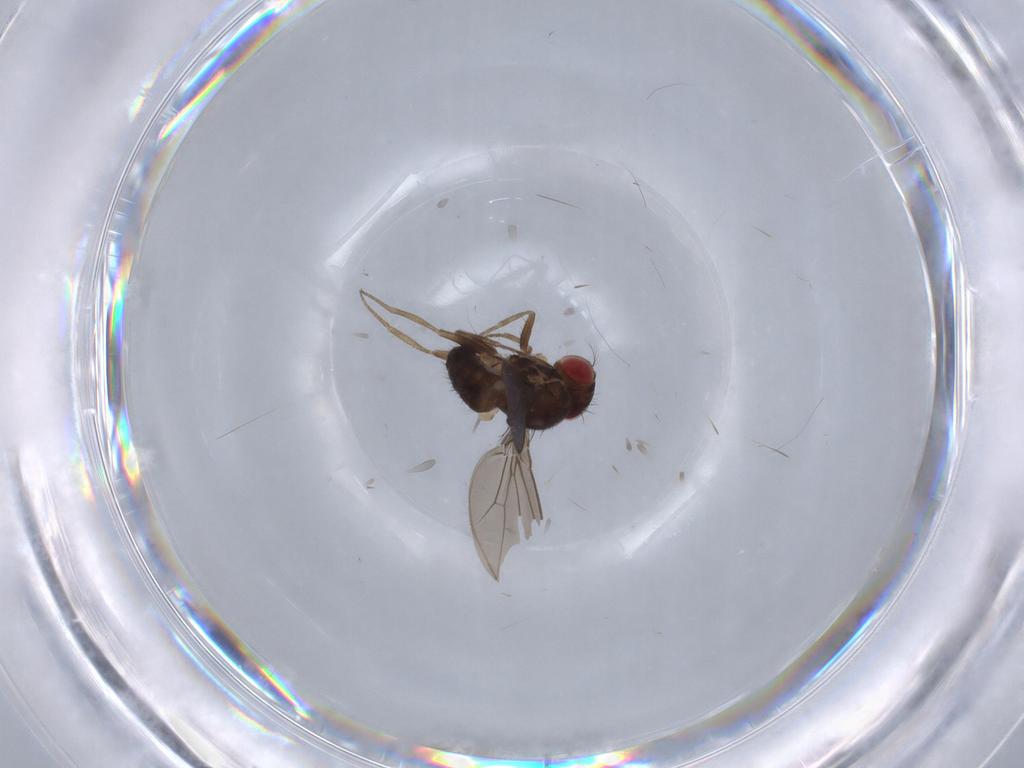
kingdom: Animalia
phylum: Arthropoda
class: Insecta
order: Diptera
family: Drosophilidae
